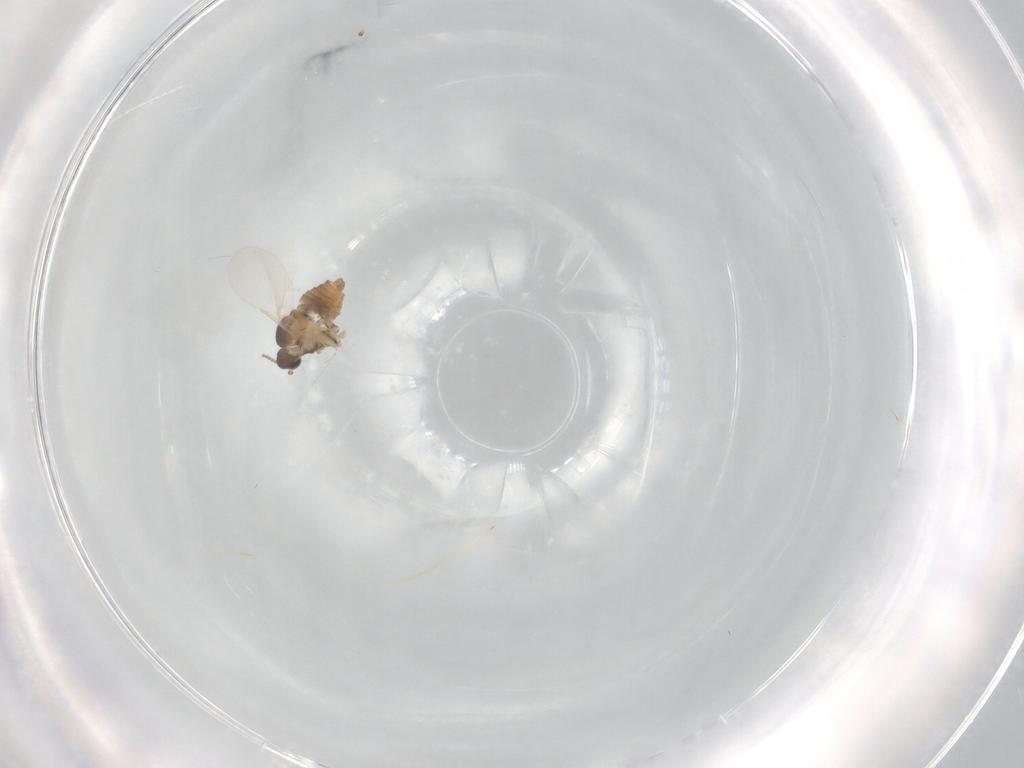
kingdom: Animalia
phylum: Arthropoda
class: Insecta
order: Diptera
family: Cecidomyiidae
